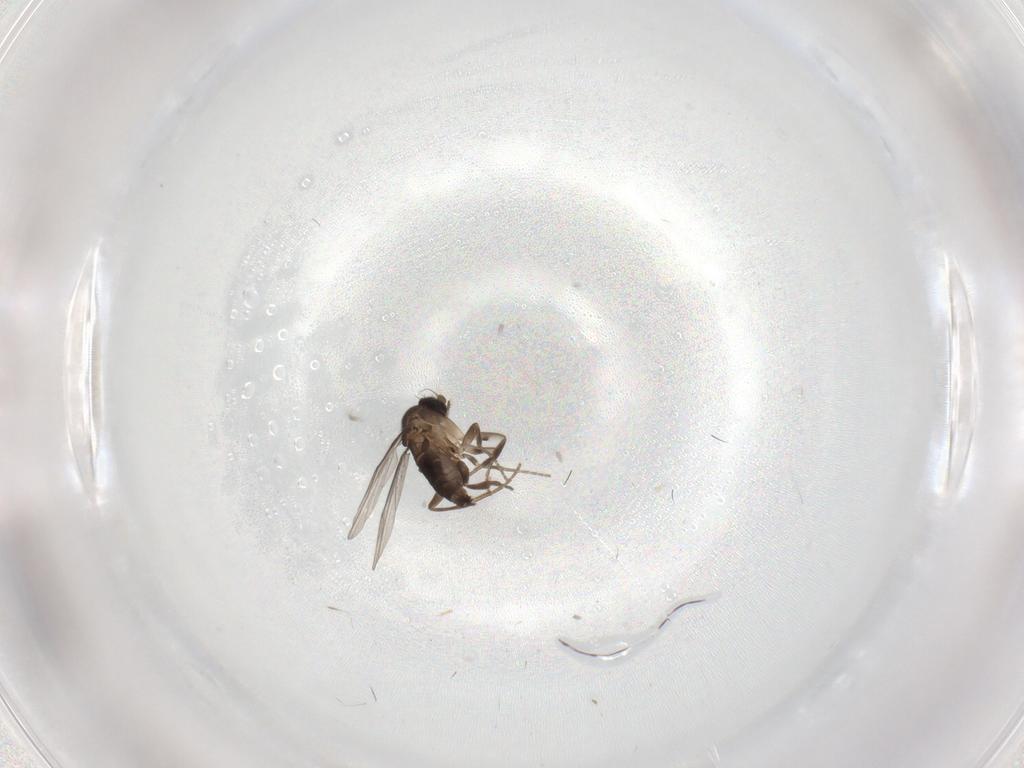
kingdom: Animalia
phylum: Arthropoda
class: Insecta
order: Diptera
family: Phoridae
